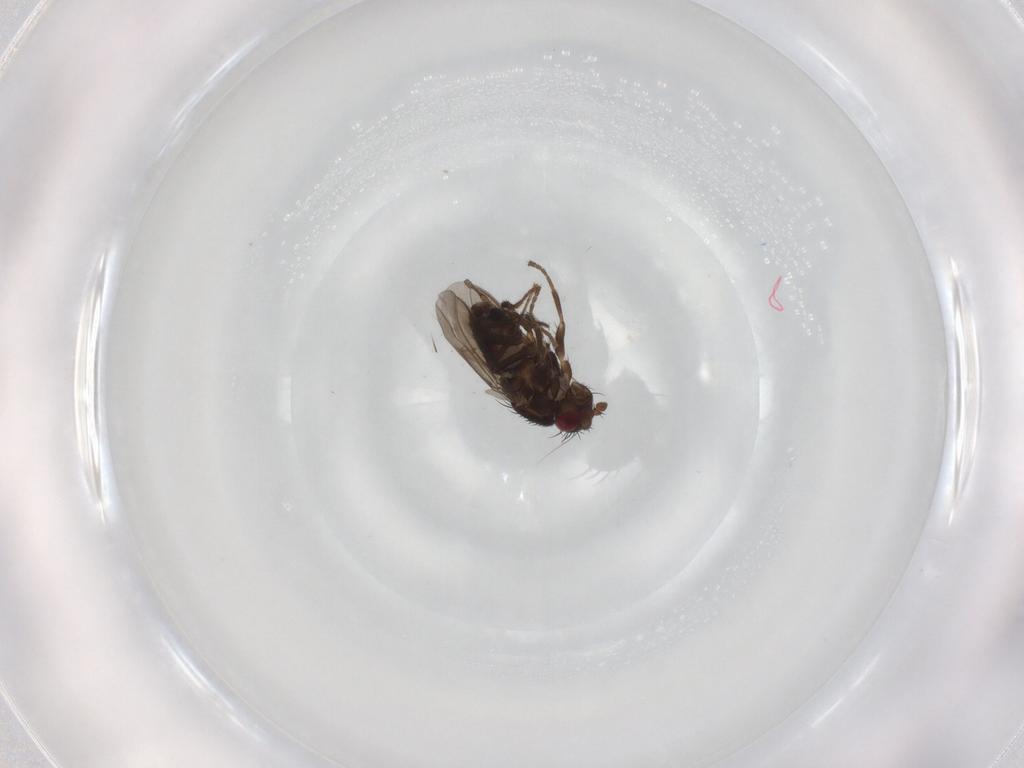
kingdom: Animalia
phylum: Arthropoda
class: Insecta
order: Diptera
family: Sphaeroceridae
